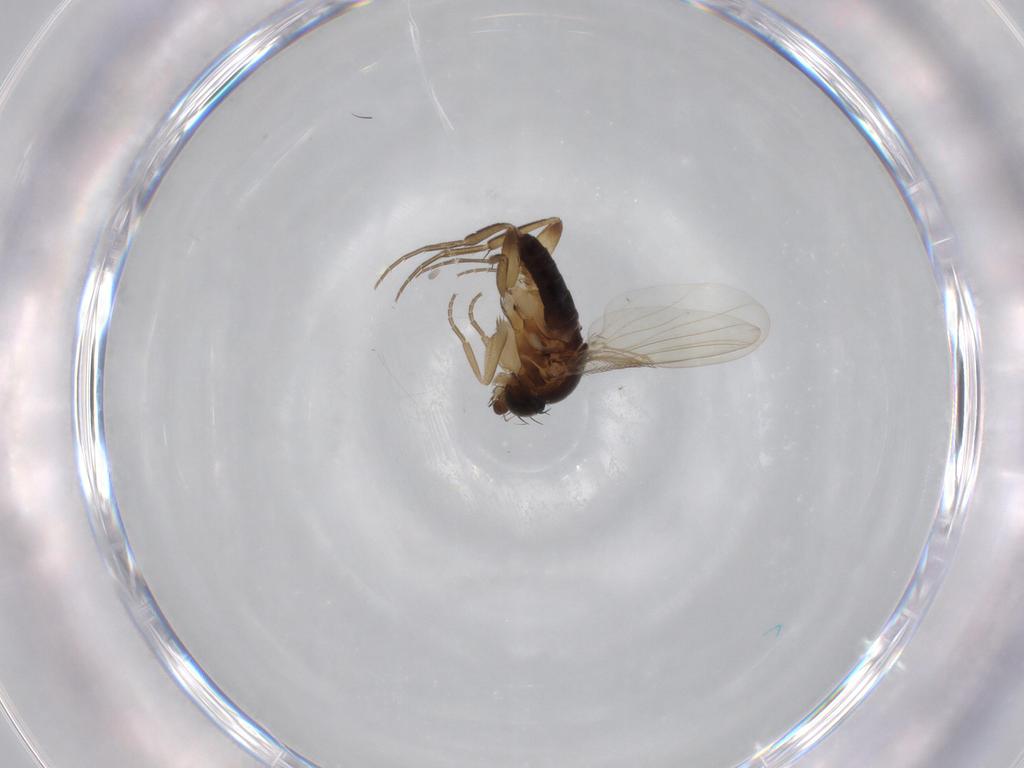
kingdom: Animalia
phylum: Arthropoda
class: Insecta
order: Diptera
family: Phoridae
